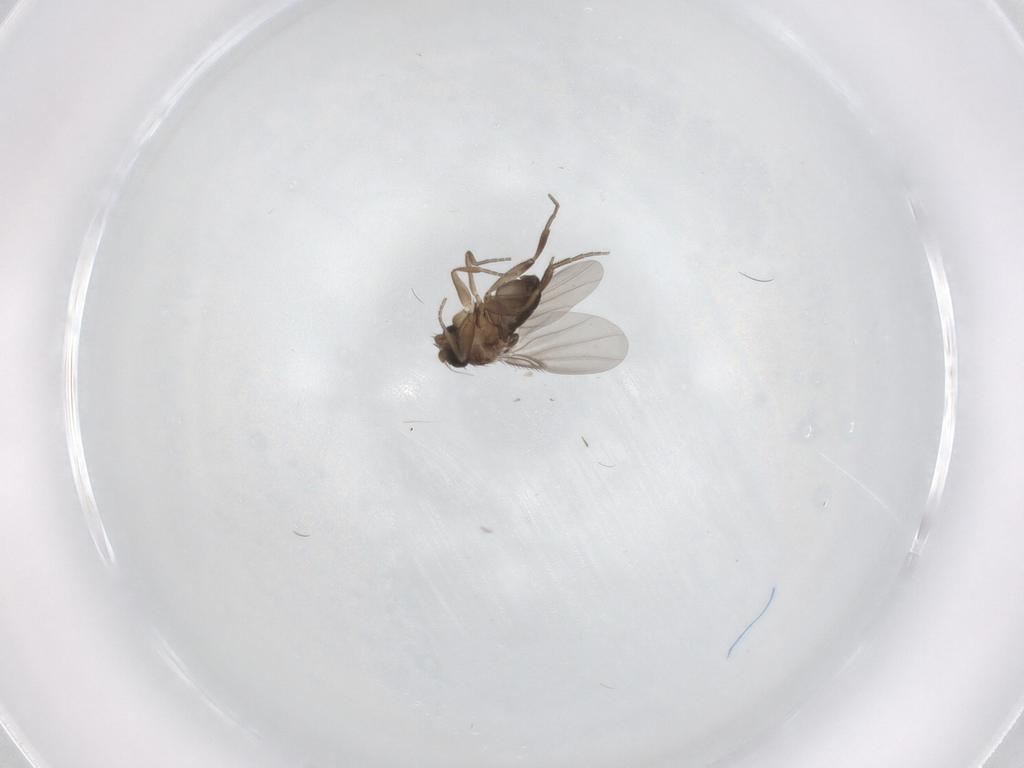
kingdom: Animalia
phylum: Arthropoda
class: Insecta
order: Diptera
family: Phoridae
